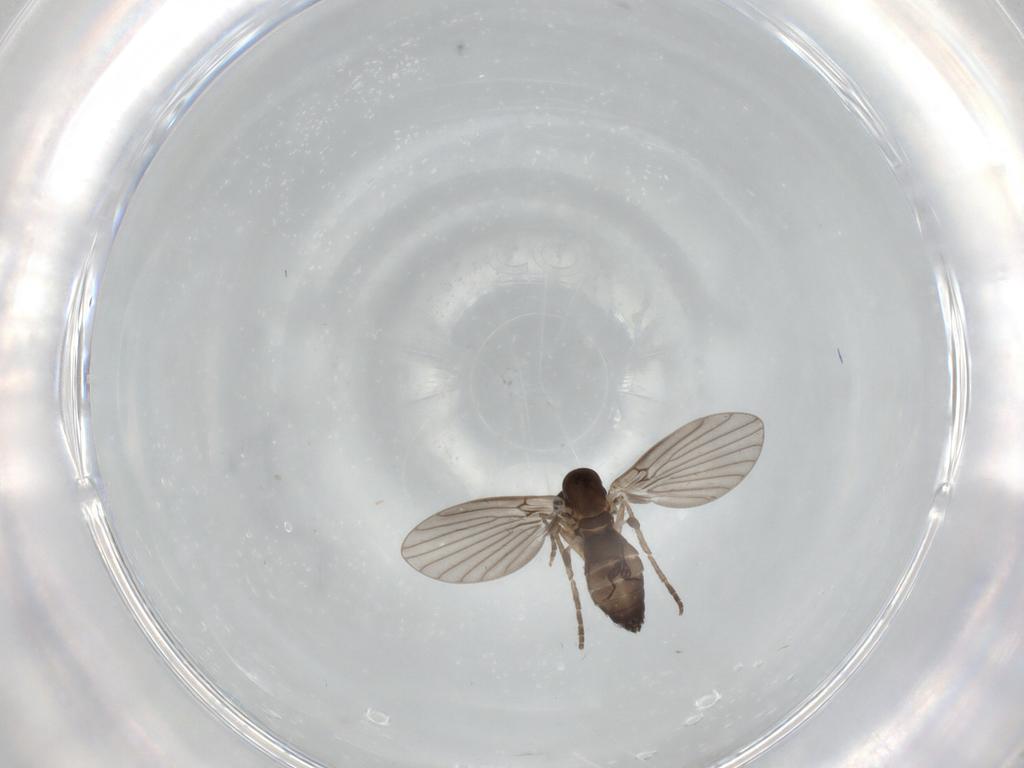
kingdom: Animalia
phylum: Arthropoda
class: Insecta
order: Diptera
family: Chironomidae
